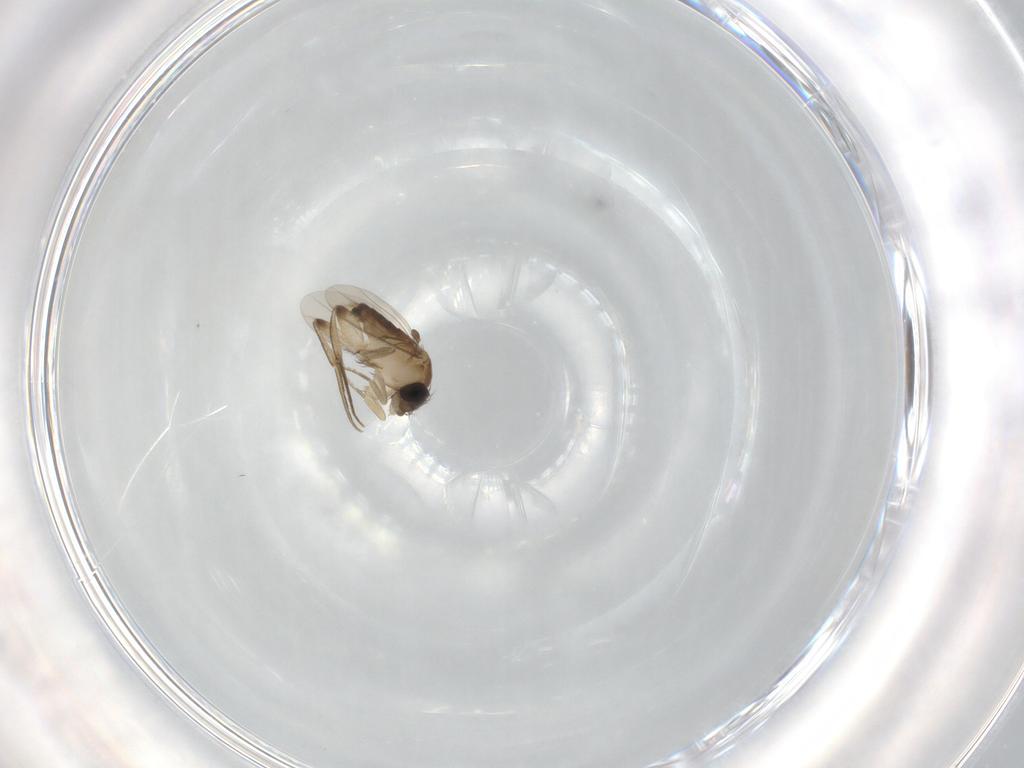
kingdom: Animalia
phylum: Arthropoda
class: Insecta
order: Diptera
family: Phoridae
